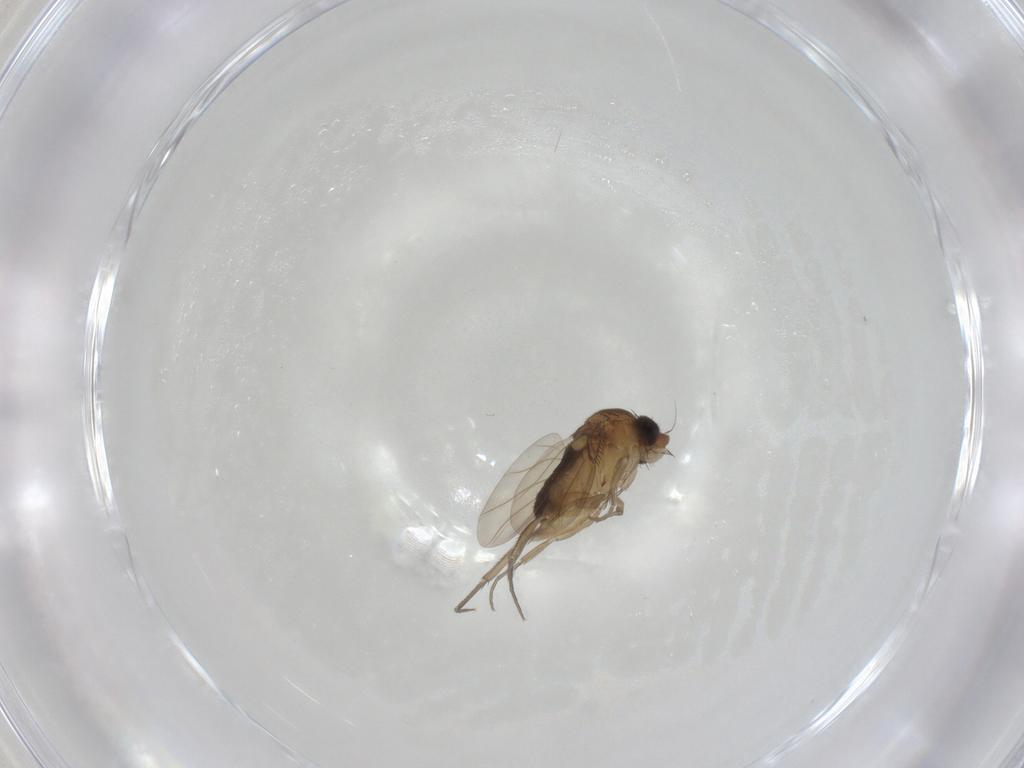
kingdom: Animalia
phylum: Arthropoda
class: Insecta
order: Diptera
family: Phoridae
